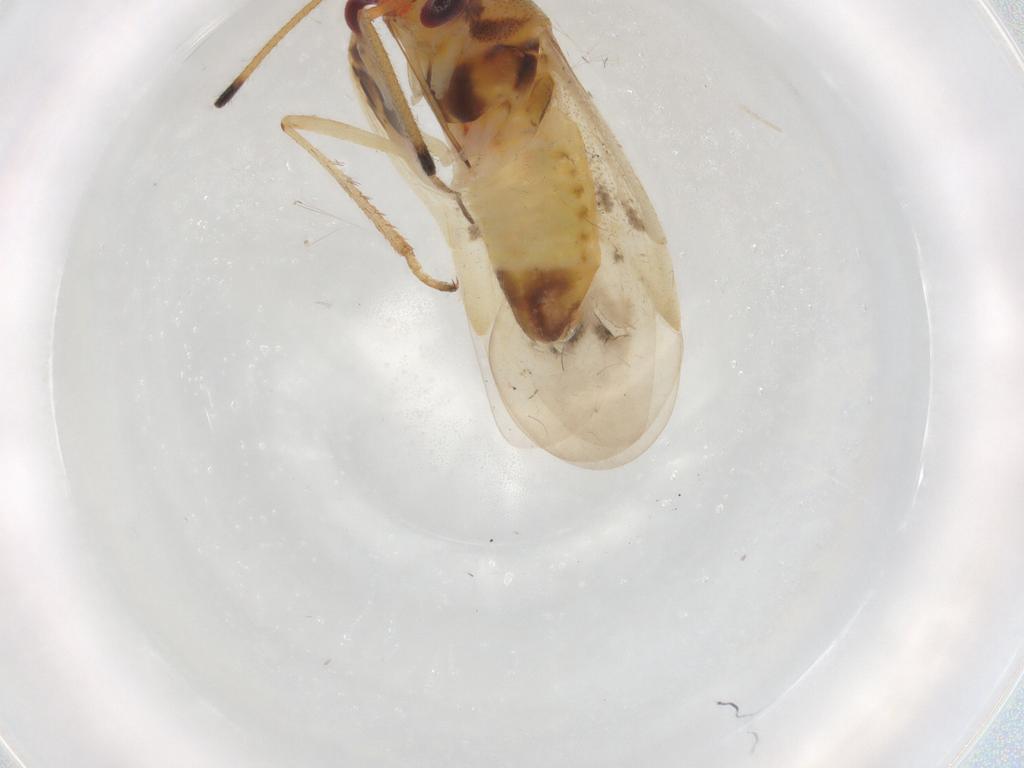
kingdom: Animalia
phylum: Arthropoda
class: Insecta
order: Hemiptera
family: Miridae
